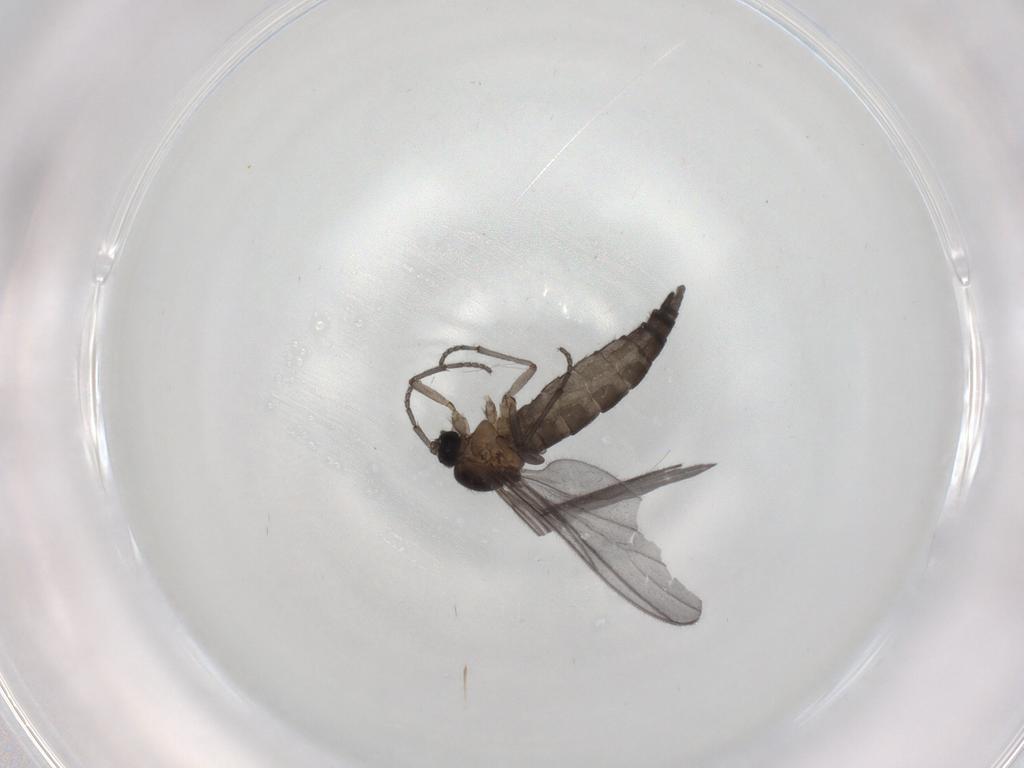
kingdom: Animalia
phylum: Arthropoda
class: Insecta
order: Diptera
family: Sciaridae
